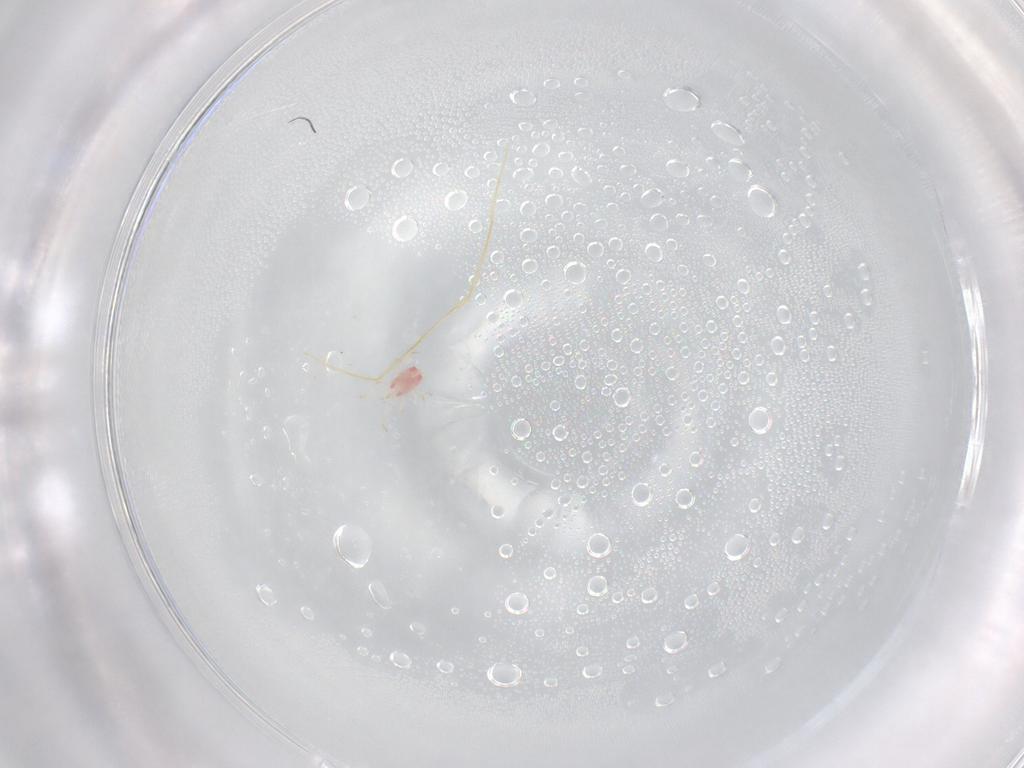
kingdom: Animalia
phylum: Arthropoda
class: Arachnida
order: Mesostigmata
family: Phytoseiidae
